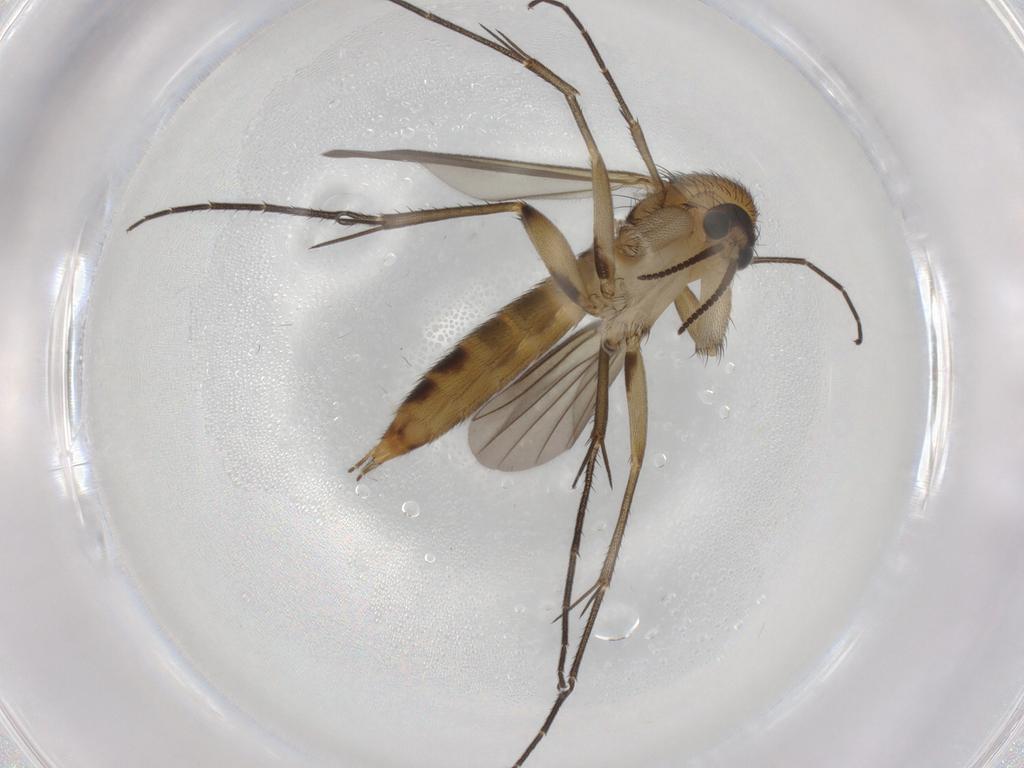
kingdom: Animalia
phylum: Arthropoda
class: Insecta
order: Diptera
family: Mycetophilidae
